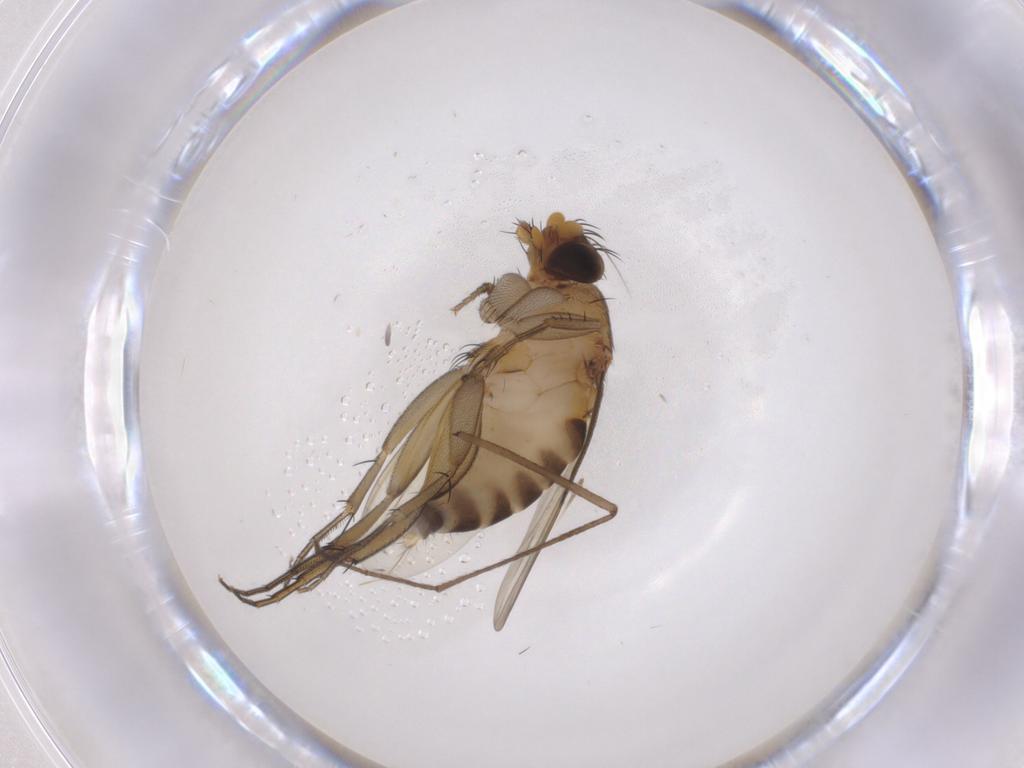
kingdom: Animalia
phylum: Arthropoda
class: Insecta
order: Diptera
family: Phoridae
